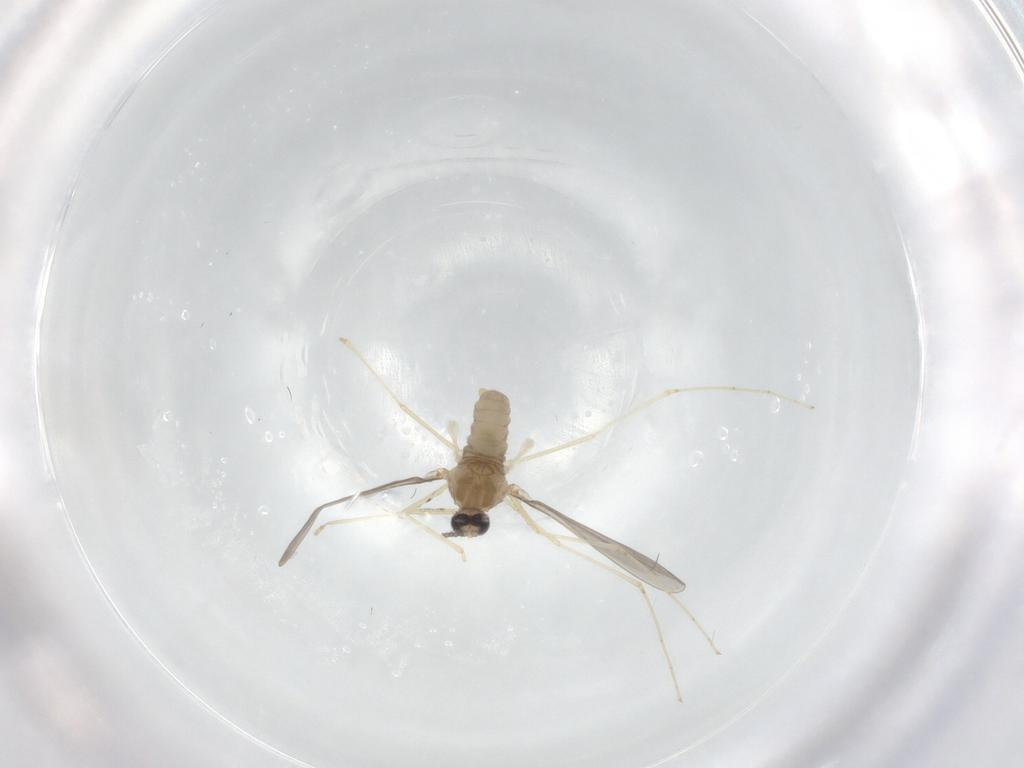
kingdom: Animalia
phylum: Arthropoda
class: Insecta
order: Diptera
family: Cecidomyiidae
